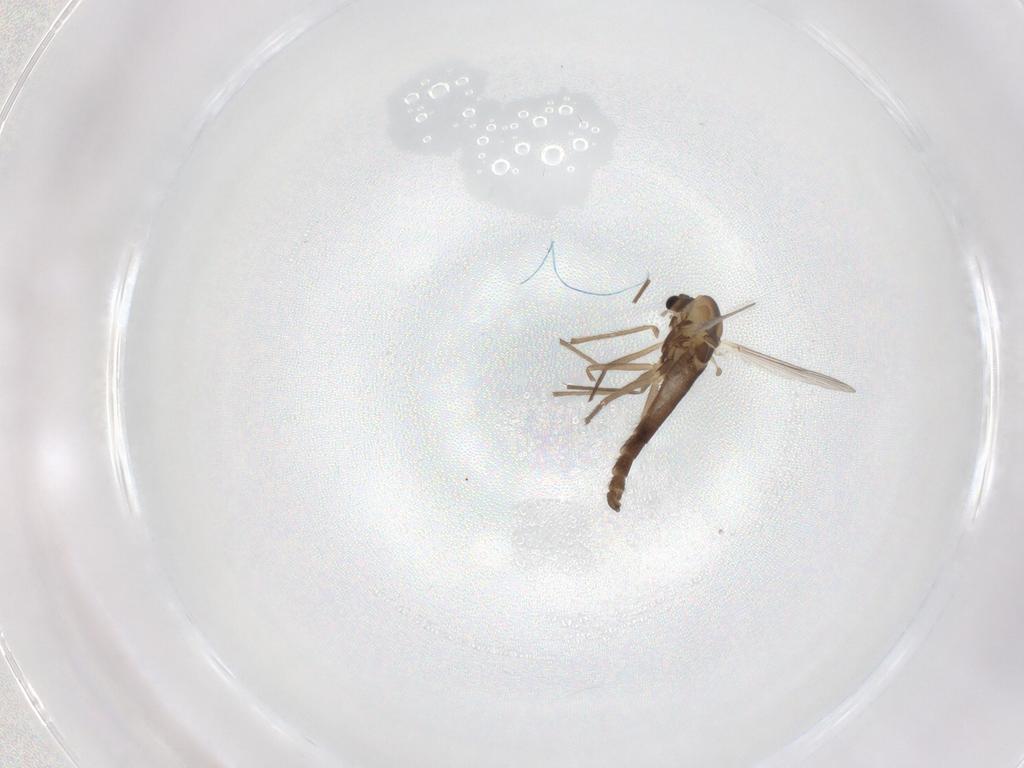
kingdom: Animalia
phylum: Arthropoda
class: Insecta
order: Diptera
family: Chironomidae
